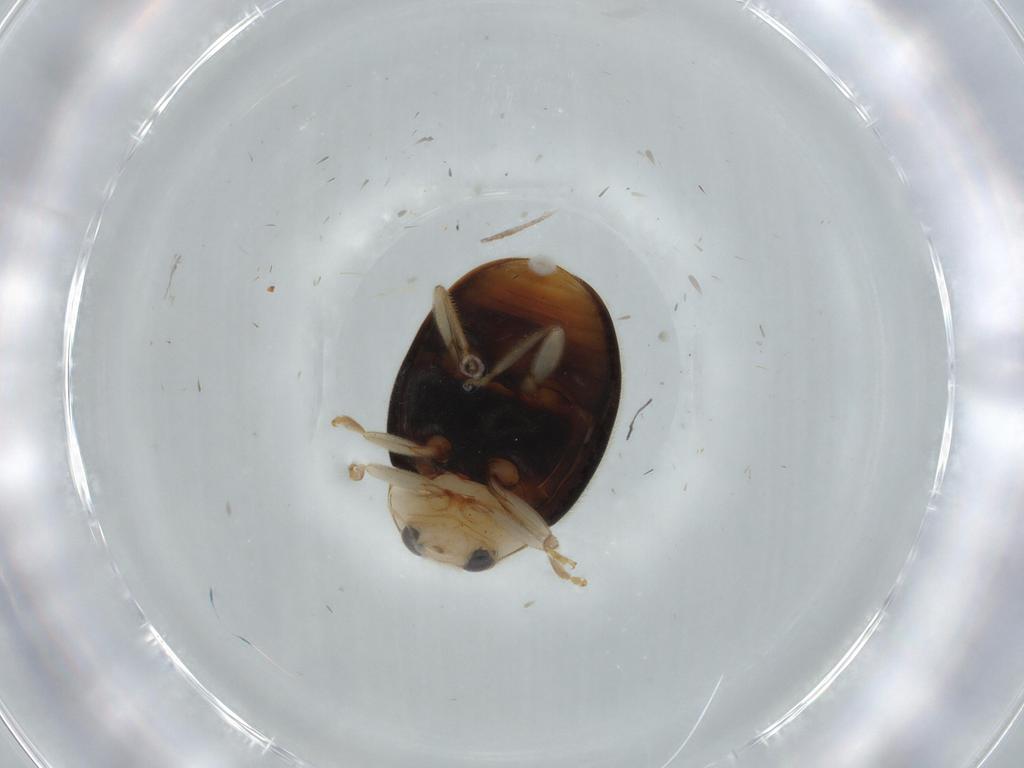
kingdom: Animalia
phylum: Arthropoda
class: Insecta
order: Coleoptera
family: Coccinellidae
